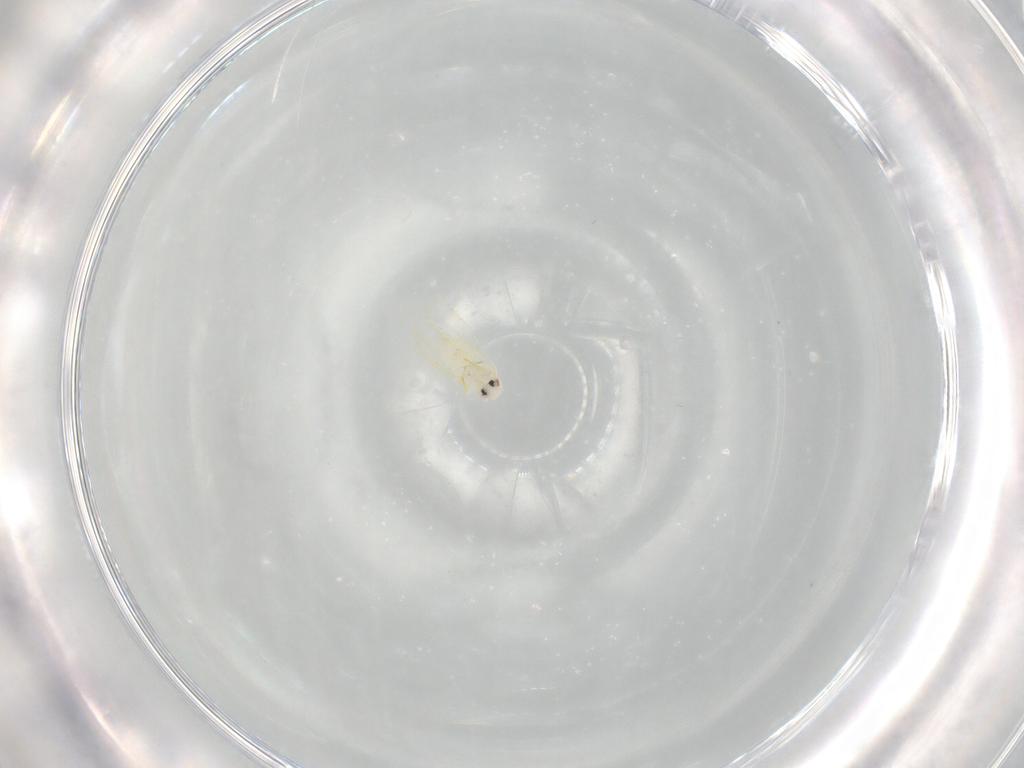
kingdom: Animalia
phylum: Arthropoda
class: Insecta
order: Hemiptera
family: Aleyrodidae
